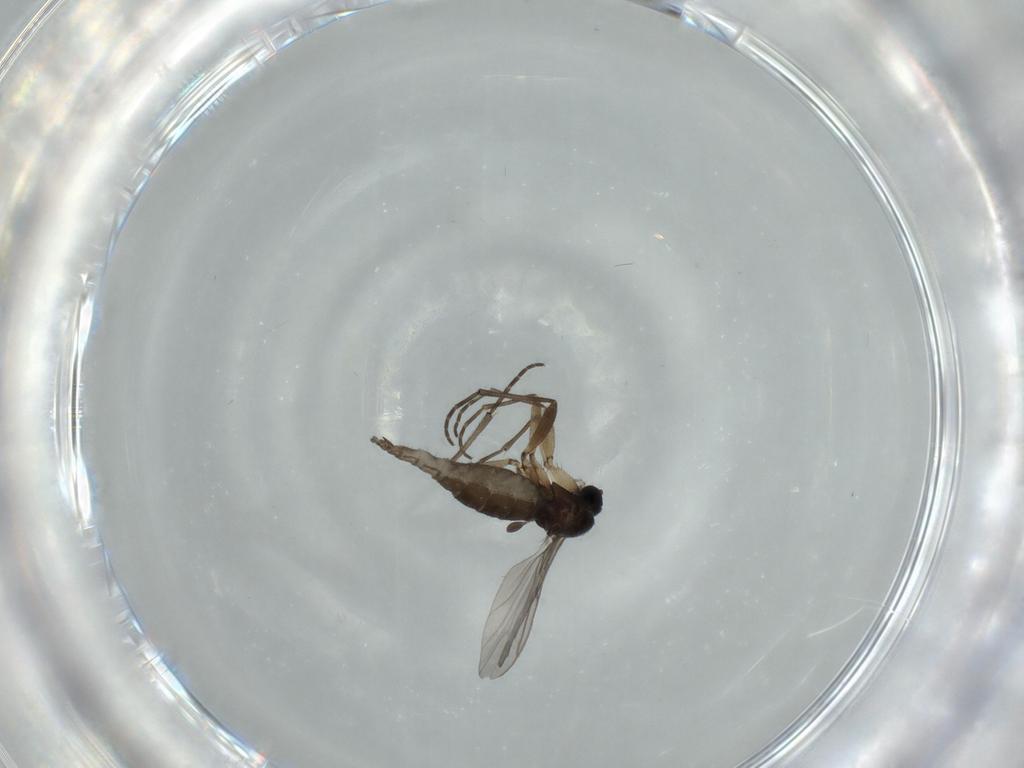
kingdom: Animalia
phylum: Arthropoda
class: Insecta
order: Diptera
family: Sciaridae
